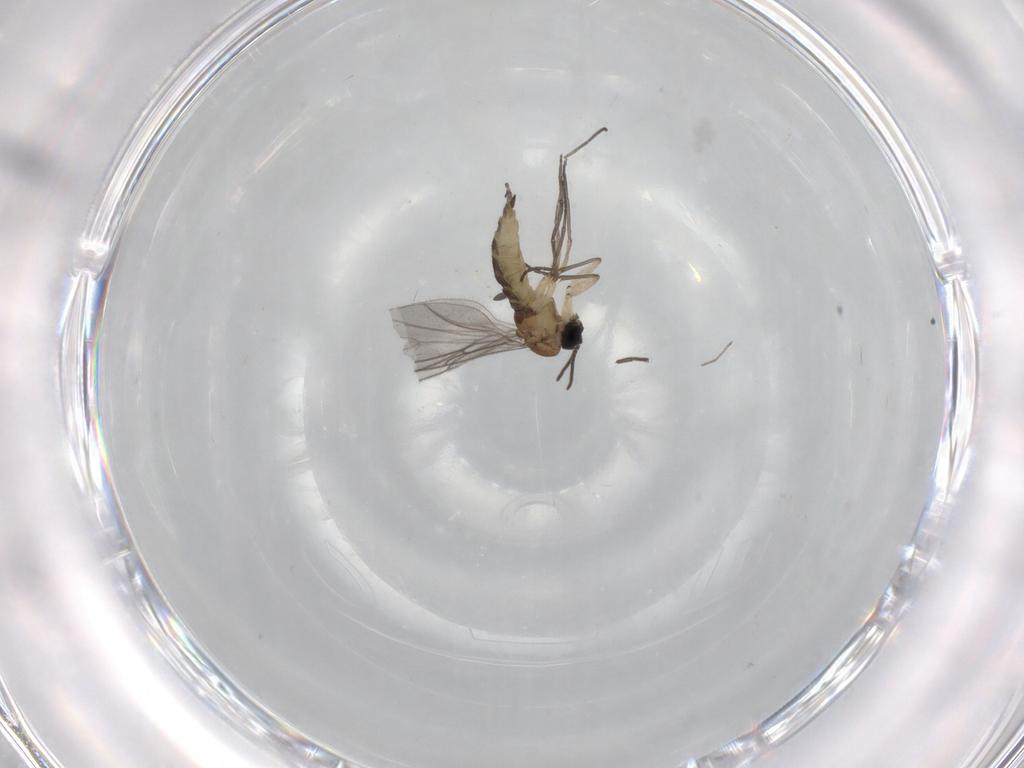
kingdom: Animalia
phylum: Arthropoda
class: Insecta
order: Diptera
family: Sciaridae
